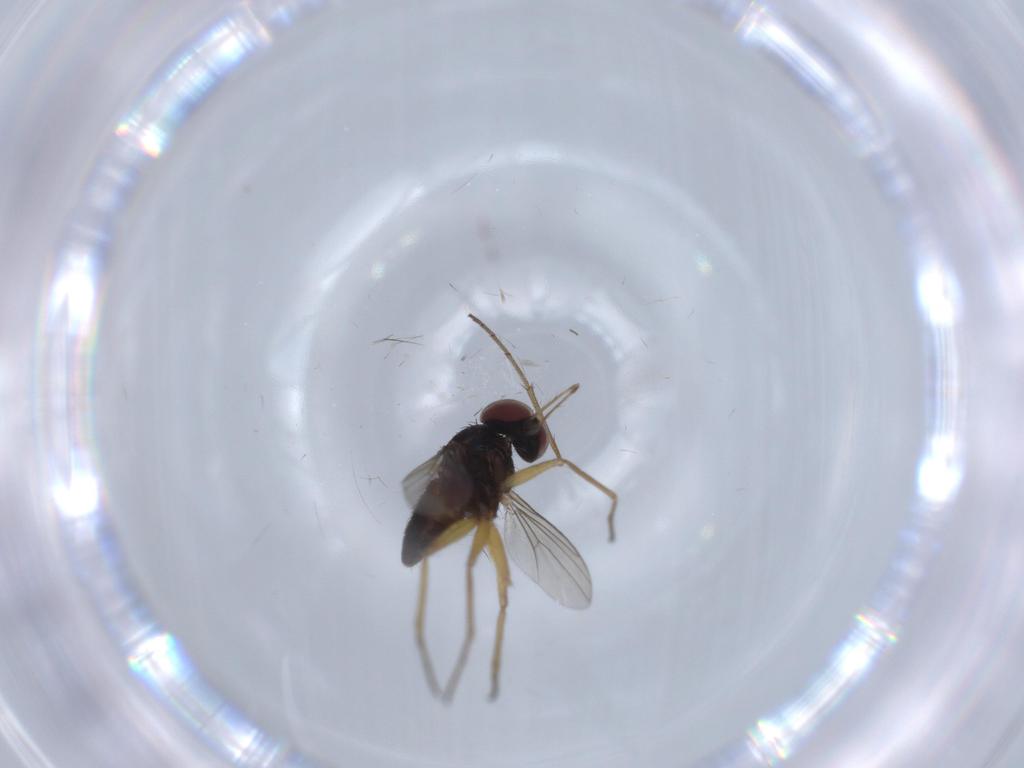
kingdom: Animalia
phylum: Arthropoda
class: Insecta
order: Diptera
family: Dolichopodidae
